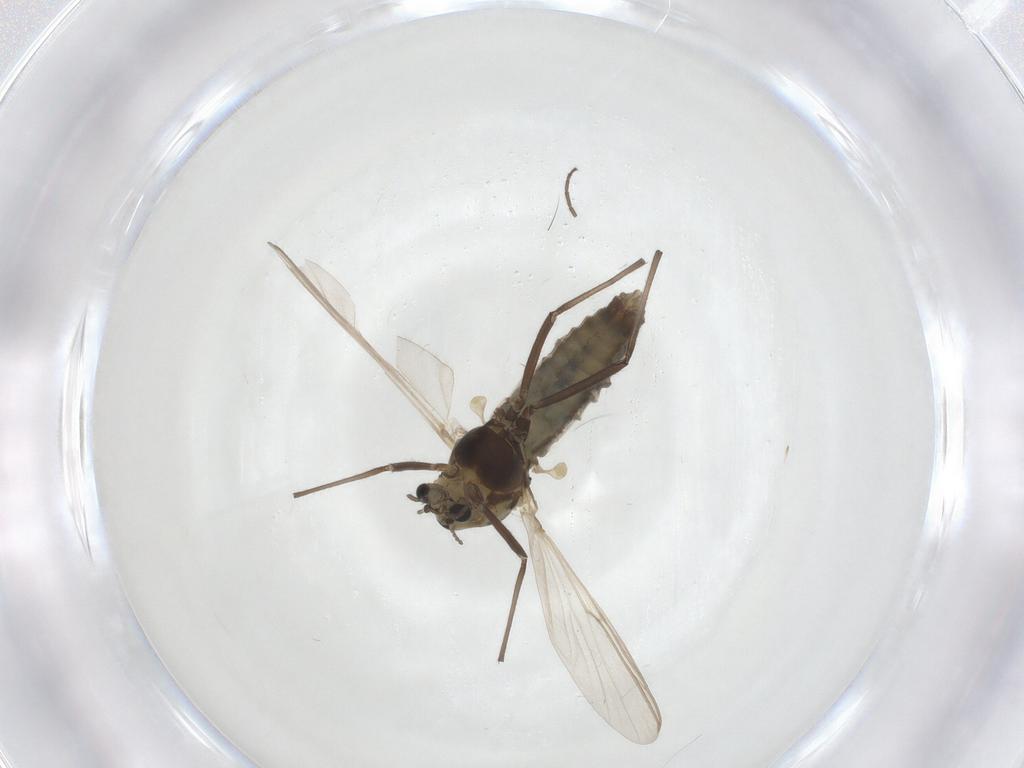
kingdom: Animalia
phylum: Arthropoda
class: Insecta
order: Diptera
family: Chironomidae
